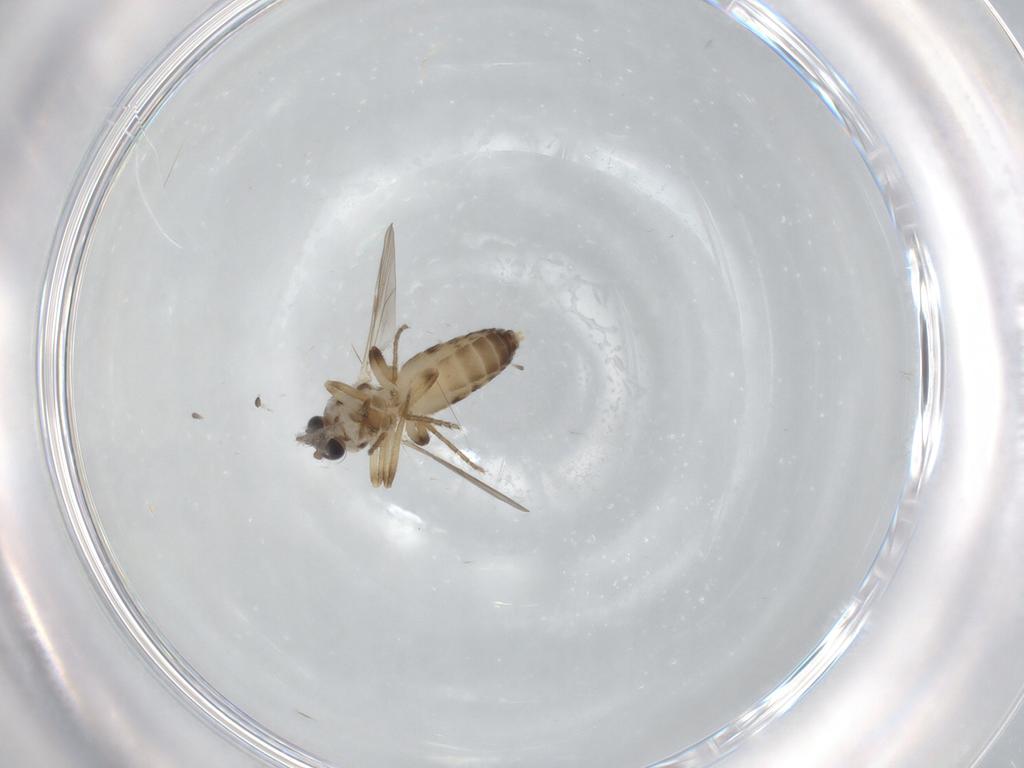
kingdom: Animalia
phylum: Arthropoda
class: Insecta
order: Diptera
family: Ceratopogonidae
